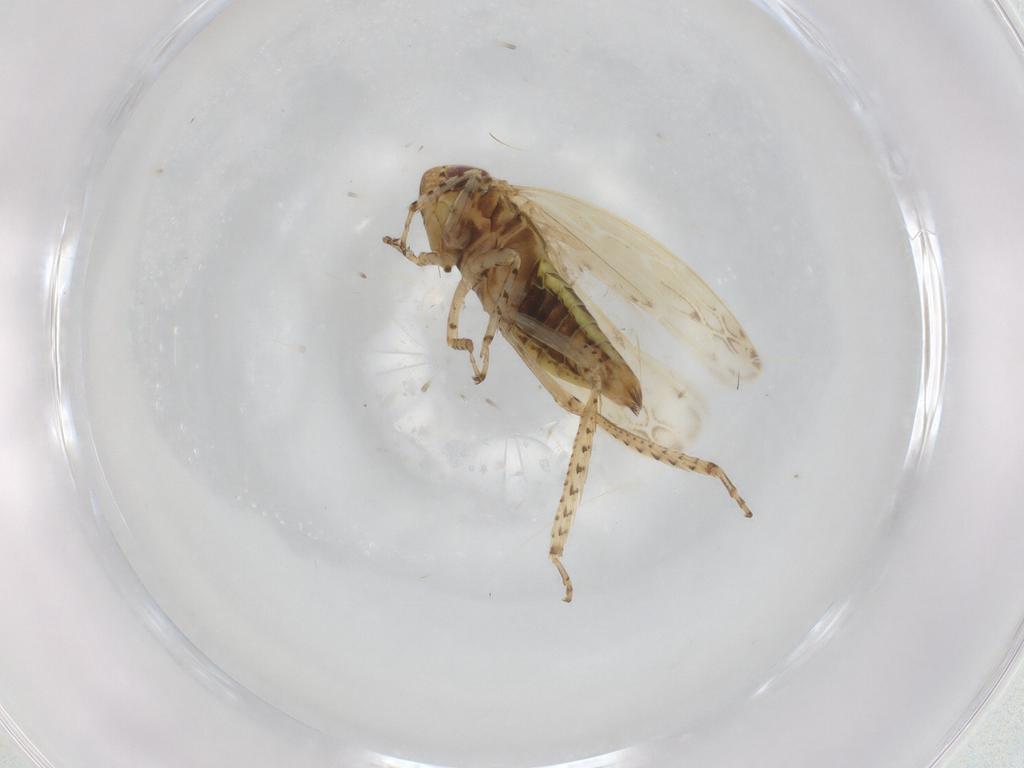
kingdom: Animalia
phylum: Arthropoda
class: Insecta
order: Hemiptera
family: Cicadellidae
